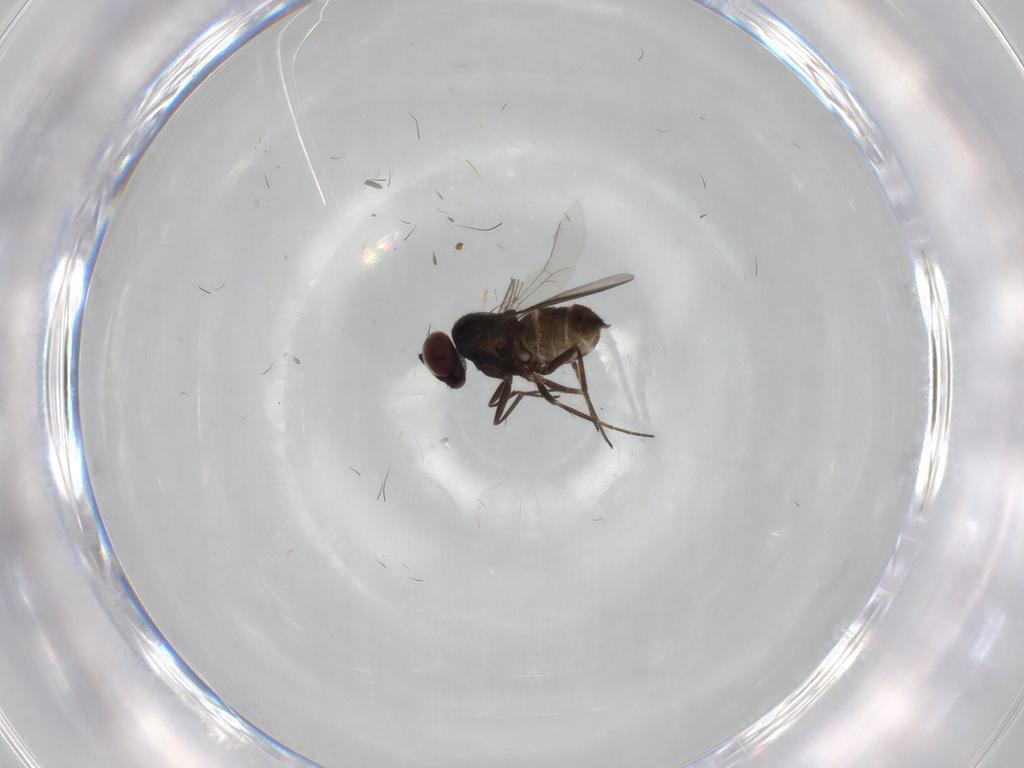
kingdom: Animalia
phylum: Arthropoda
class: Insecta
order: Diptera
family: Dolichopodidae
